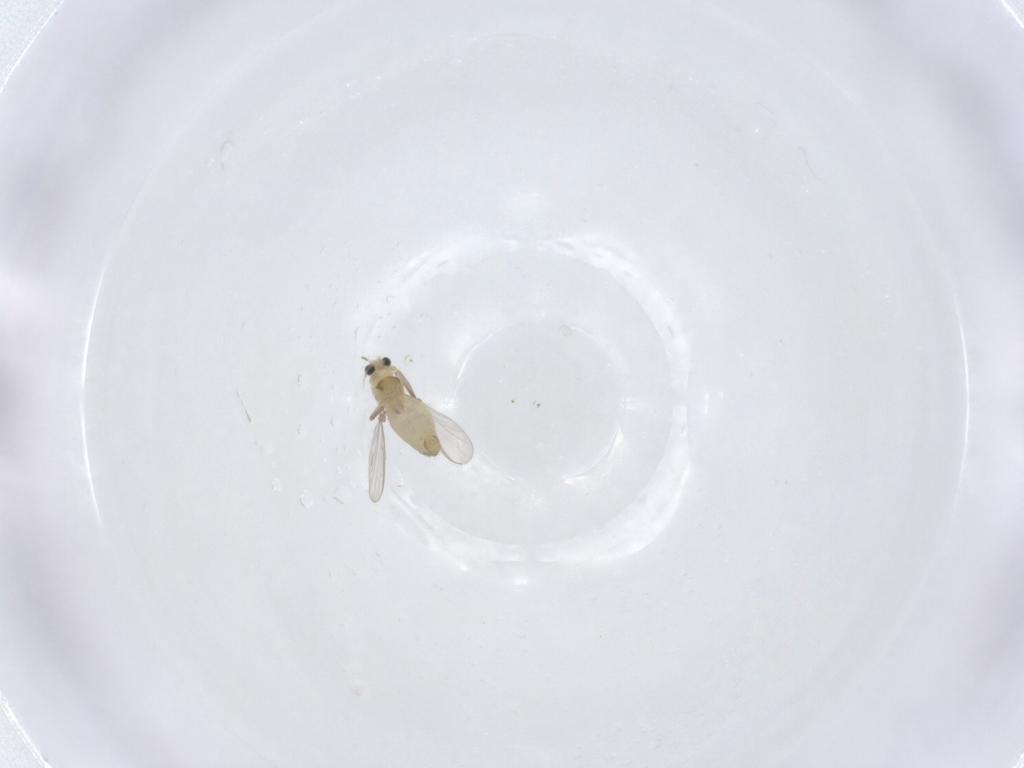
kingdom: Animalia
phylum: Arthropoda
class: Insecta
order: Diptera
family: Chironomidae
